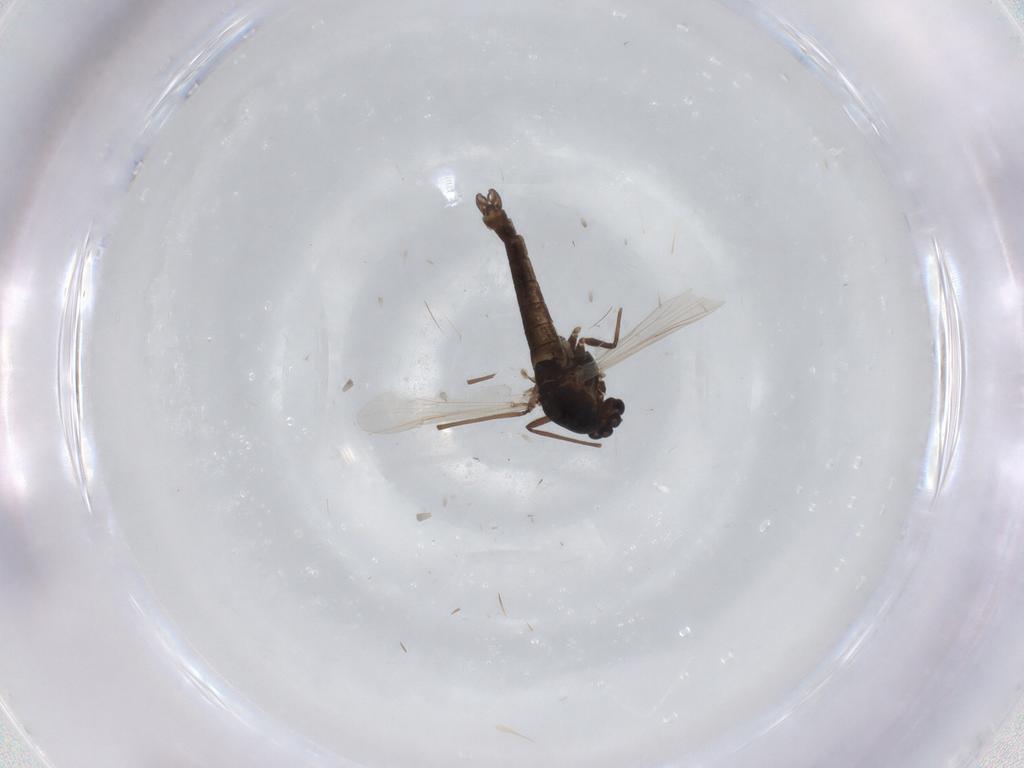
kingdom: Animalia
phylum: Arthropoda
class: Insecta
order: Diptera
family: Chironomidae
